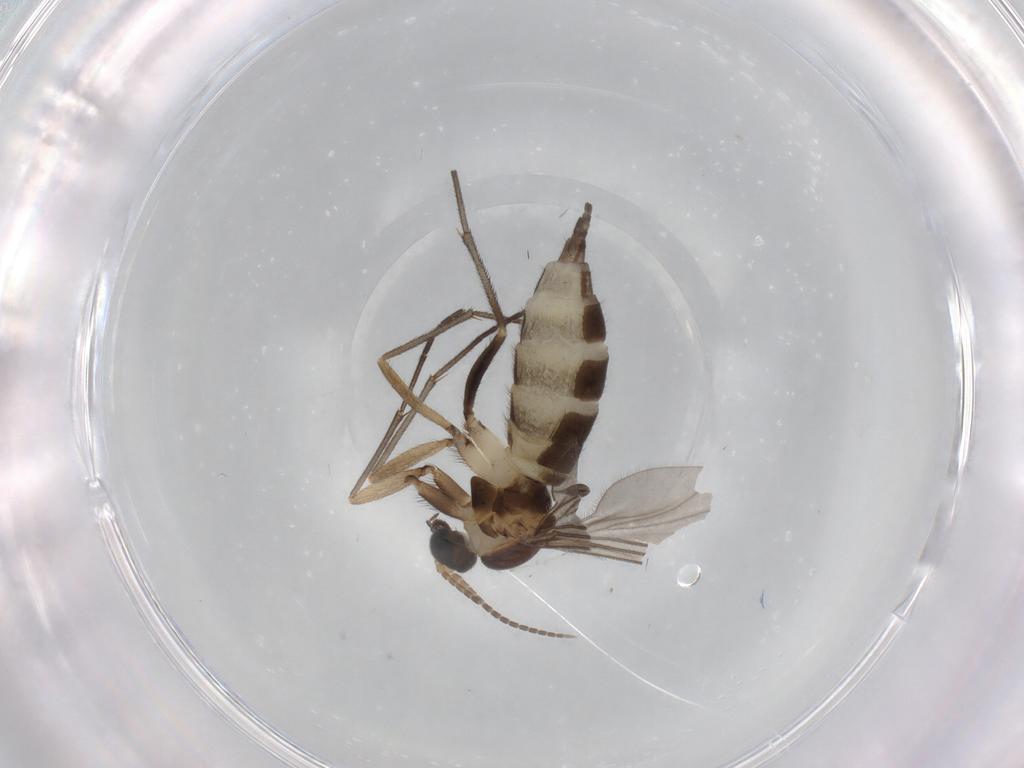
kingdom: Animalia
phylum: Arthropoda
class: Insecta
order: Diptera
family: Sciaridae
